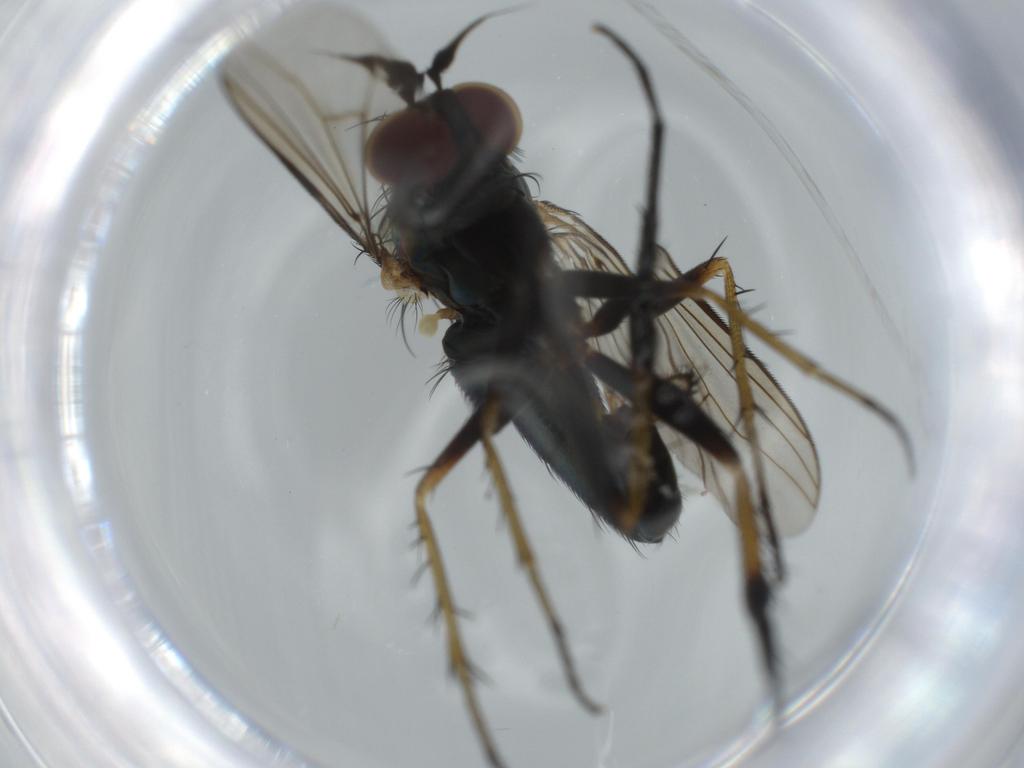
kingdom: Animalia
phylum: Arthropoda
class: Insecta
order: Diptera
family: Dolichopodidae
